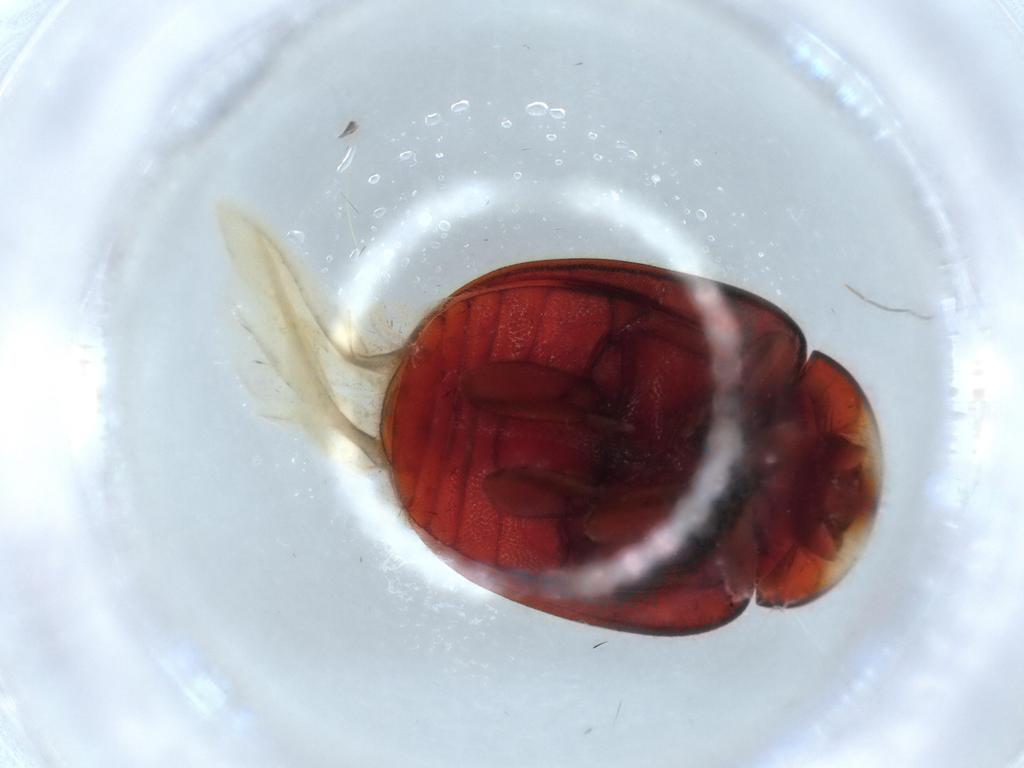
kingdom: Animalia
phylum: Arthropoda
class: Insecta
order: Coleoptera
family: Coccinellidae
